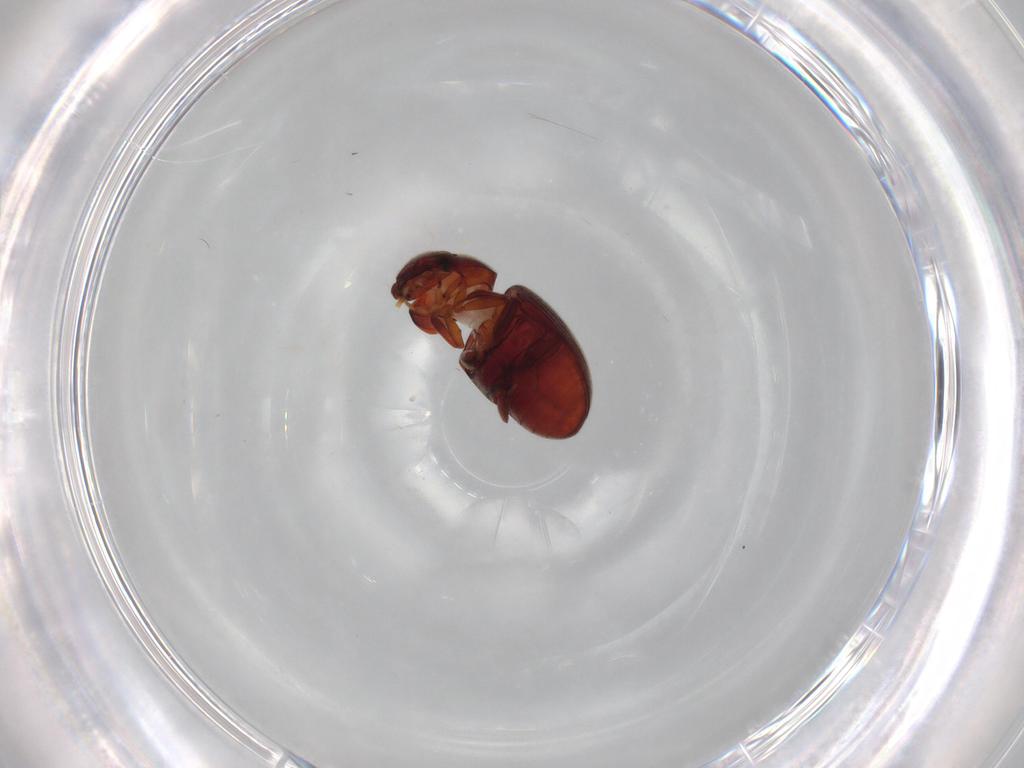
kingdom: Animalia
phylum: Arthropoda
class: Insecta
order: Coleoptera
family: Ptinidae
